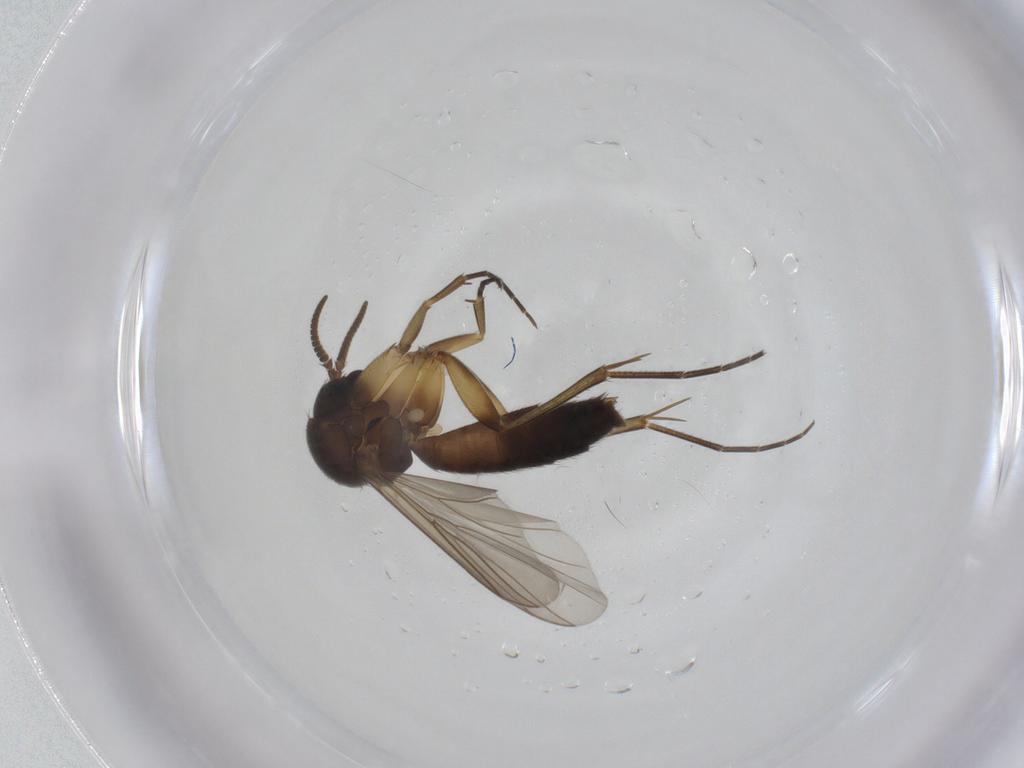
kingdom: Animalia
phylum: Arthropoda
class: Insecta
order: Diptera
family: Mycetophilidae
